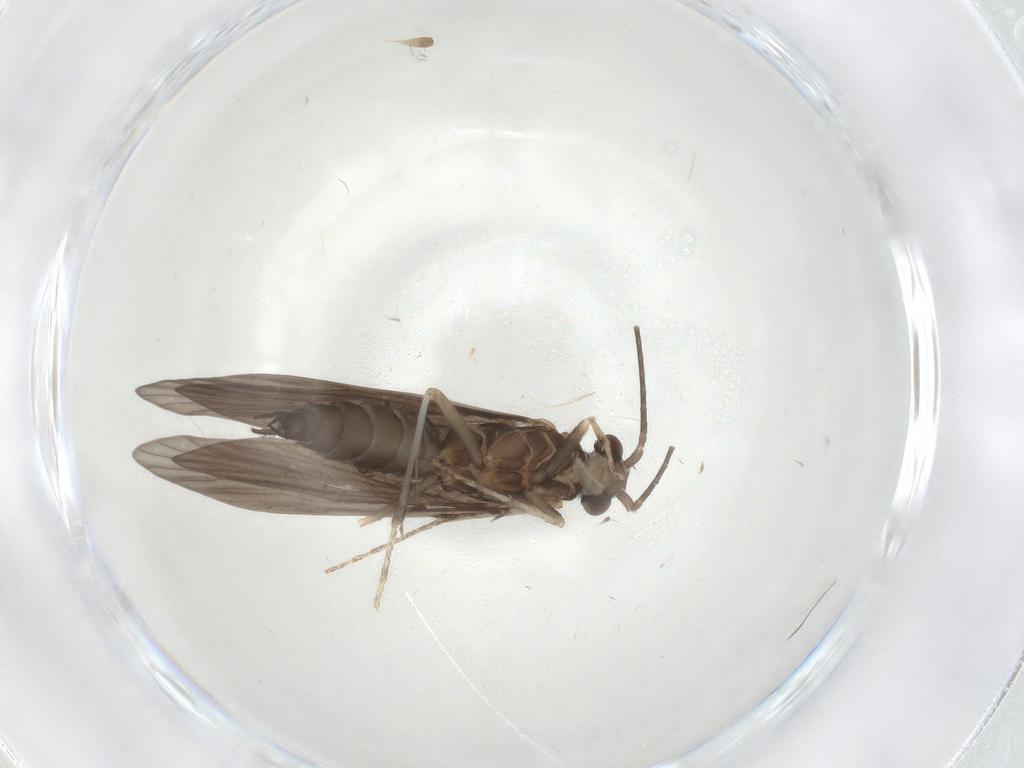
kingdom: Animalia
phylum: Arthropoda
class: Insecta
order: Trichoptera
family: Xiphocentronidae
